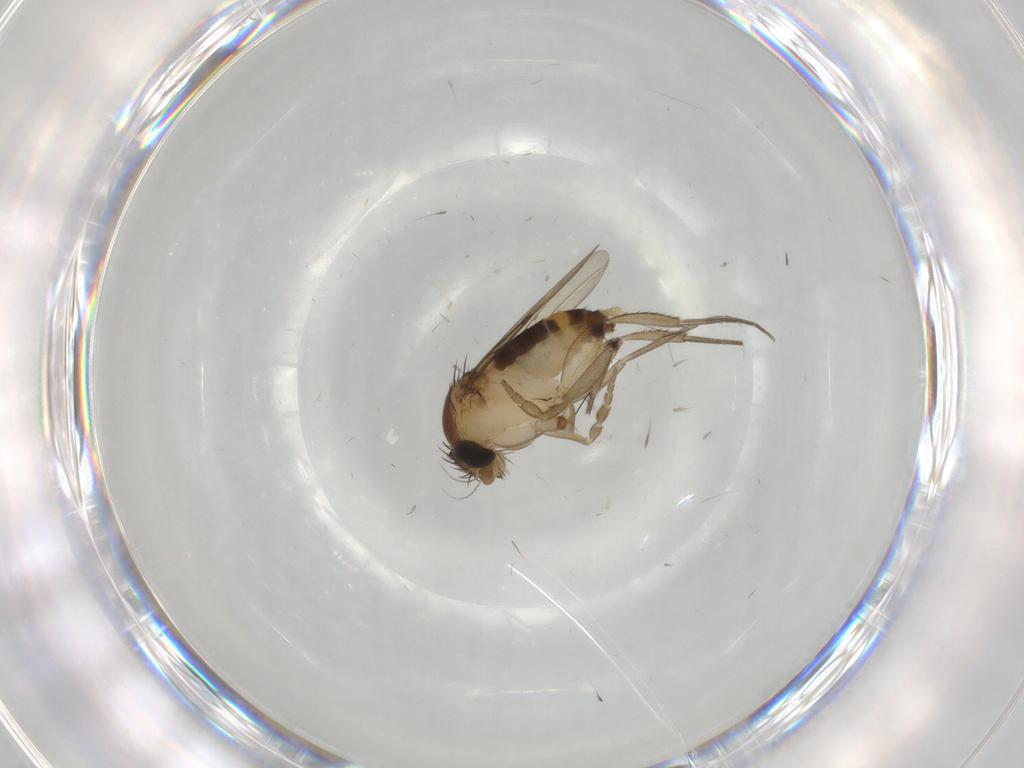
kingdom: Animalia
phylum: Arthropoda
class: Insecta
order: Diptera
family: Phoridae
